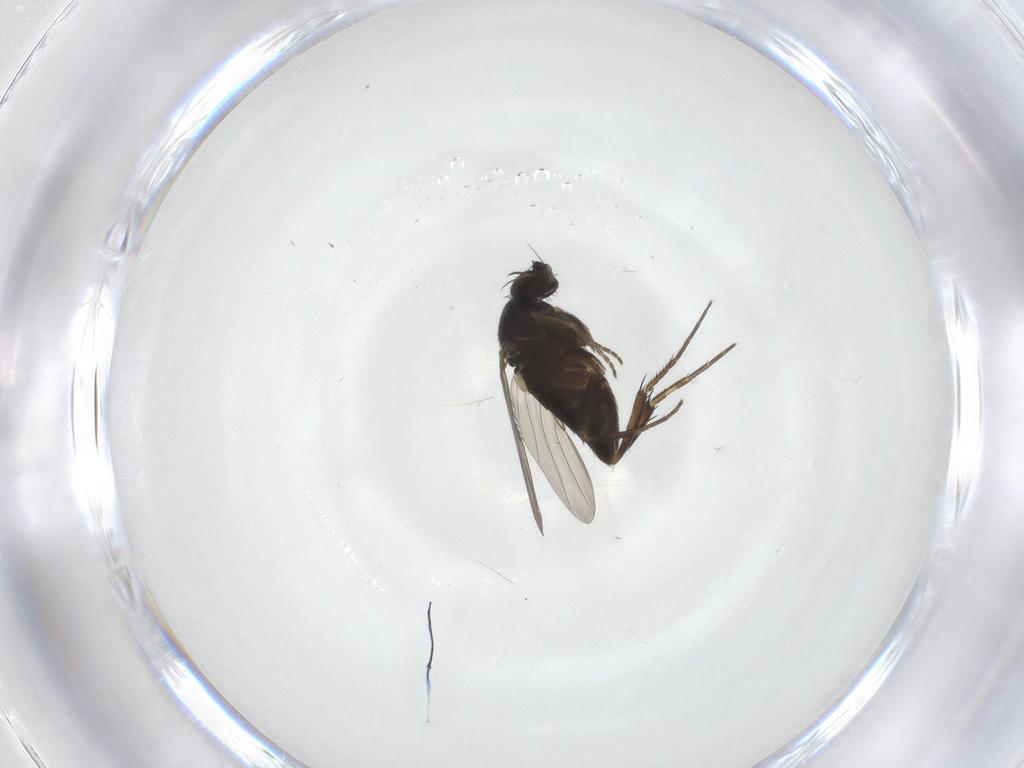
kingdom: Animalia
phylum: Arthropoda
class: Insecta
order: Diptera
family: Phoridae
